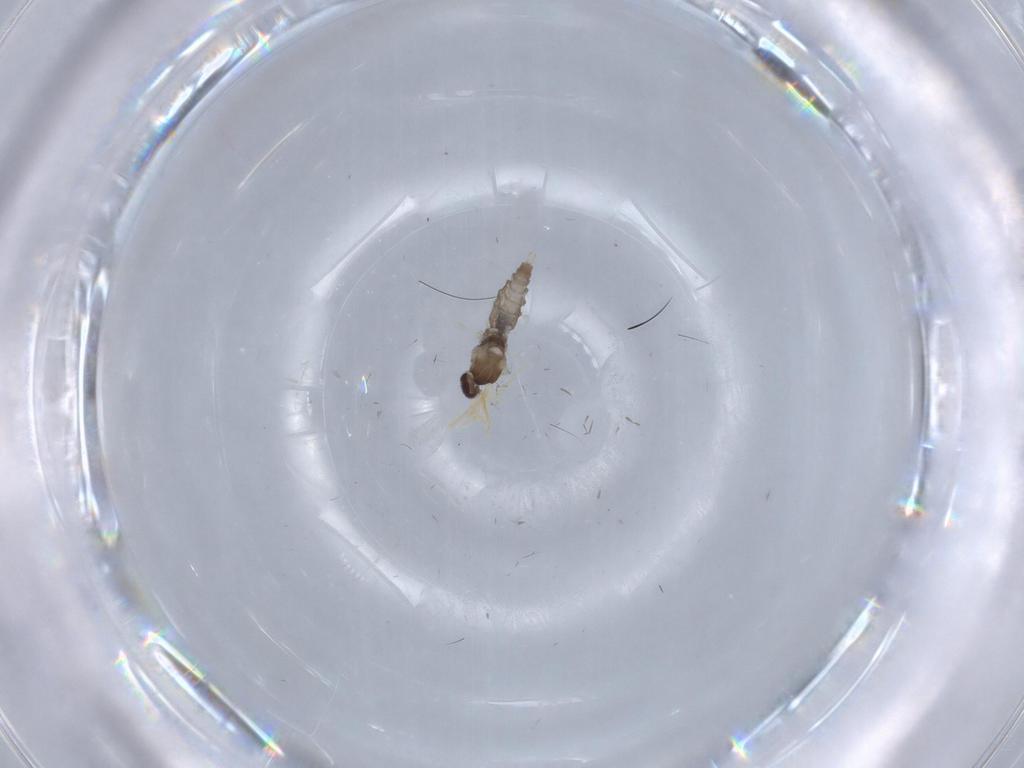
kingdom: Animalia
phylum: Arthropoda
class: Insecta
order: Diptera
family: Cecidomyiidae
